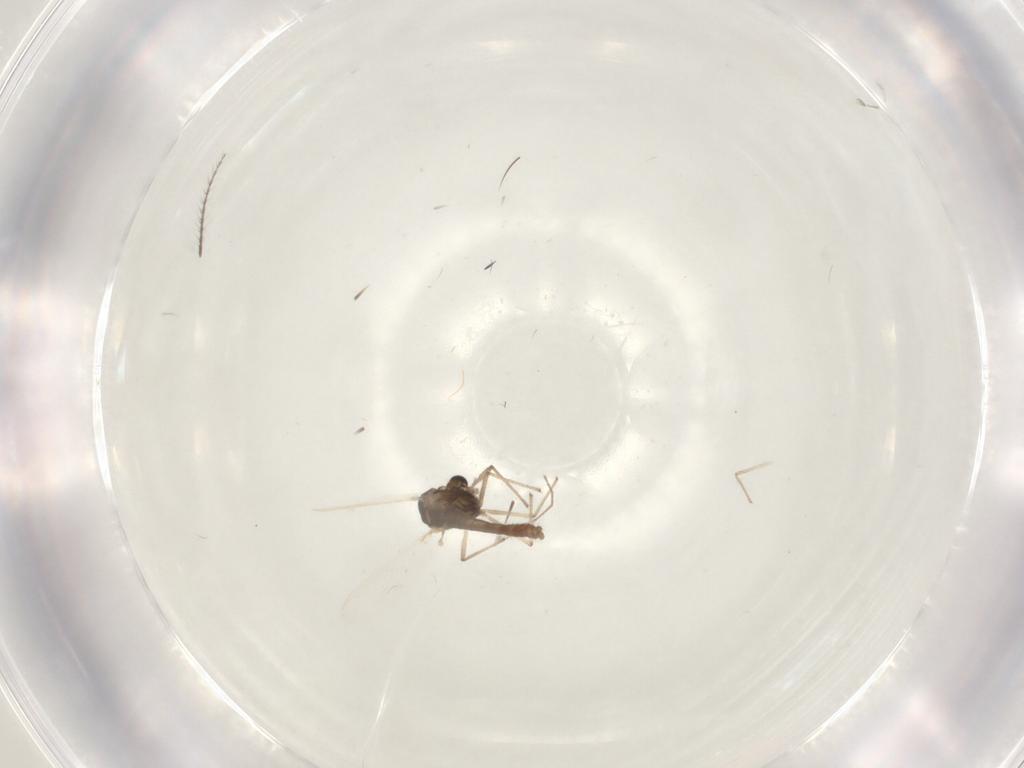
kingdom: Animalia
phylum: Arthropoda
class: Insecta
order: Diptera
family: Chironomidae
